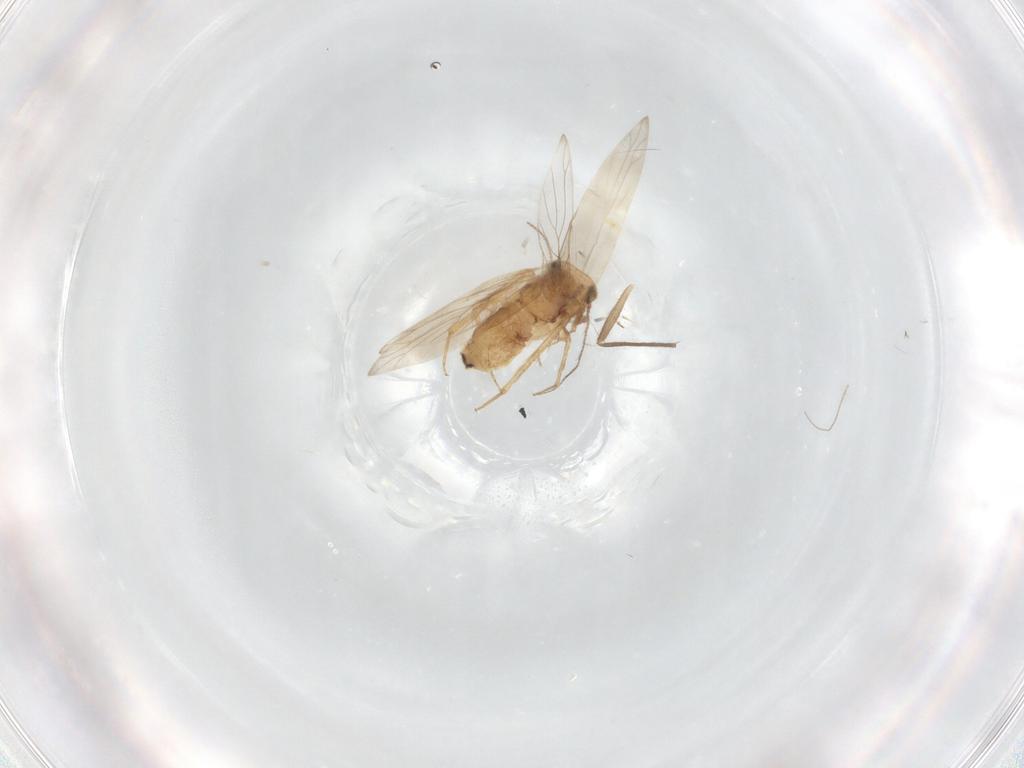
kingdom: Animalia
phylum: Arthropoda
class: Insecta
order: Psocodea
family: Lepidopsocidae
